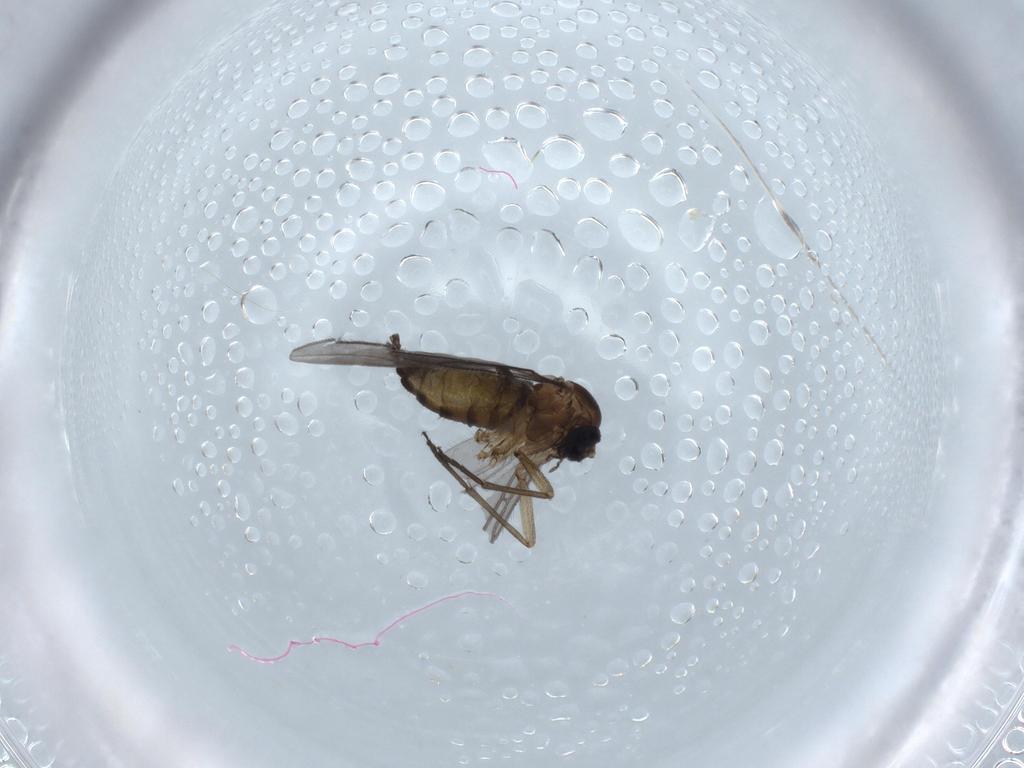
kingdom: Animalia
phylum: Arthropoda
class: Insecta
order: Diptera
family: Sciaridae
